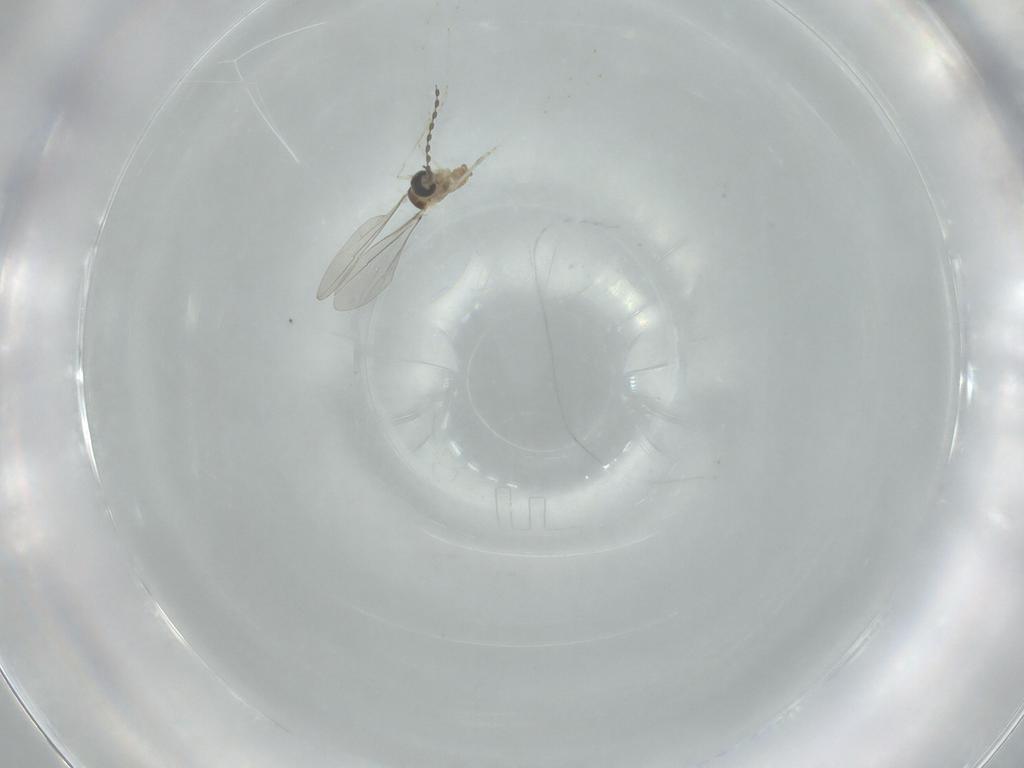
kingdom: Animalia
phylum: Arthropoda
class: Insecta
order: Diptera
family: Cecidomyiidae
